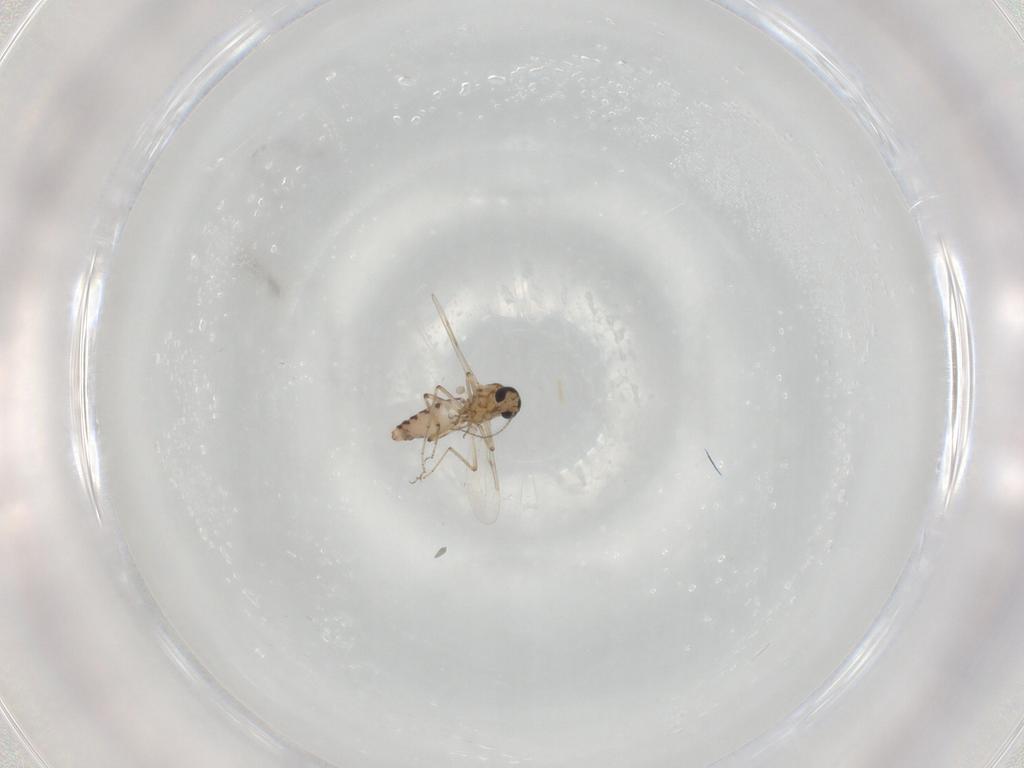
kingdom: Animalia
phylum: Arthropoda
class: Insecta
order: Diptera
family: Ceratopogonidae
